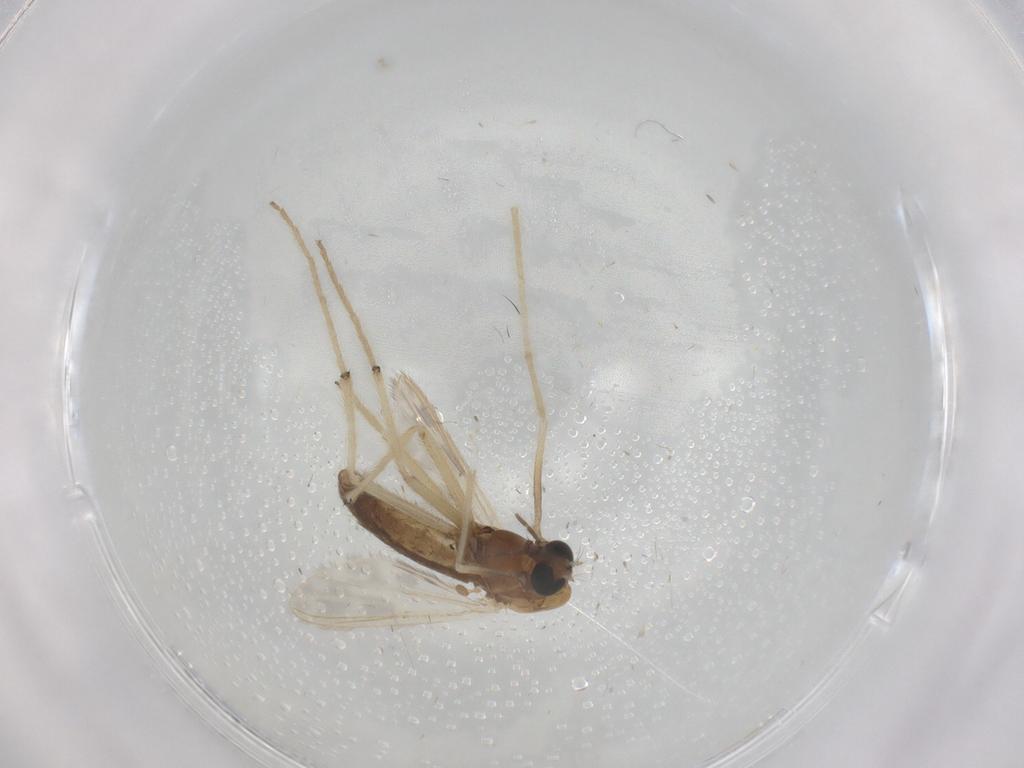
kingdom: Animalia
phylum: Arthropoda
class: Insecta
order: Diptera
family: Chironomidae
